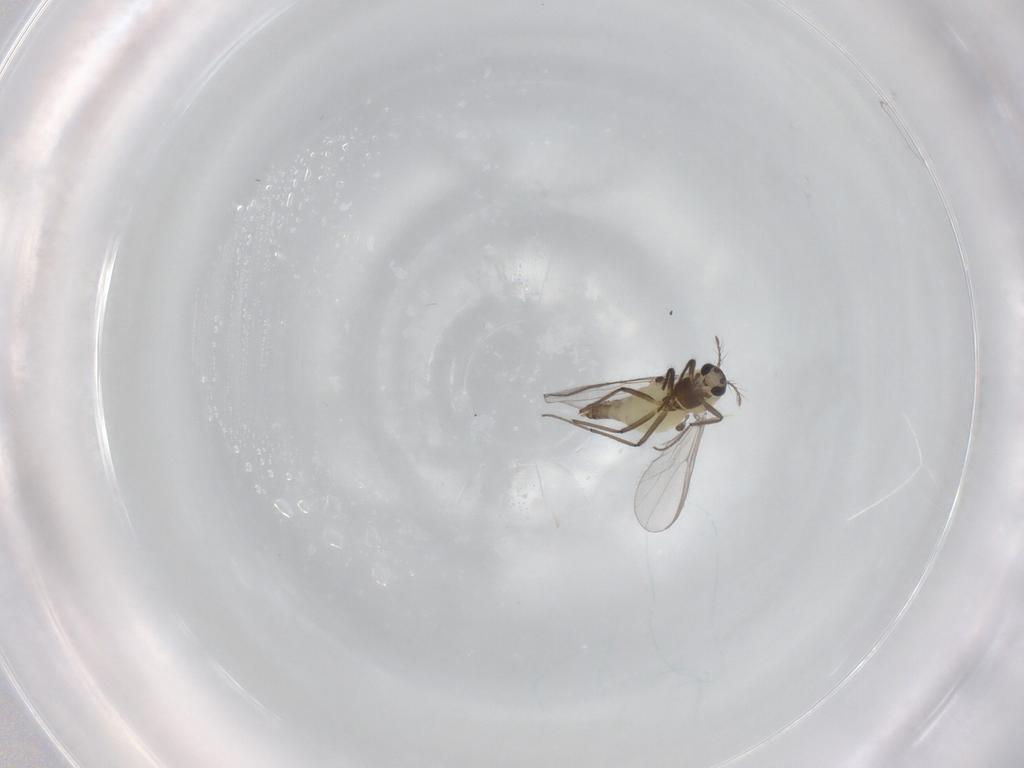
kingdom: Animalia
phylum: Arthropoda
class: Insecta
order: Diptera
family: Chironomidae
